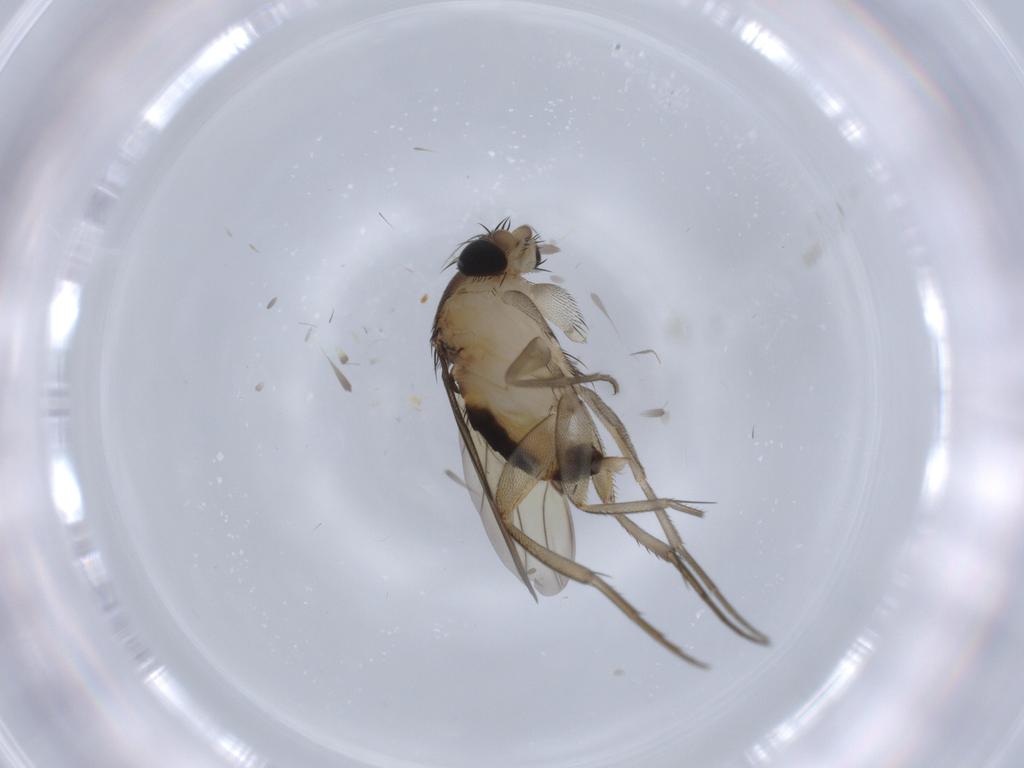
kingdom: Animalia
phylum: Arthropoda
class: Insecta
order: Diptera
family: Phoridae
